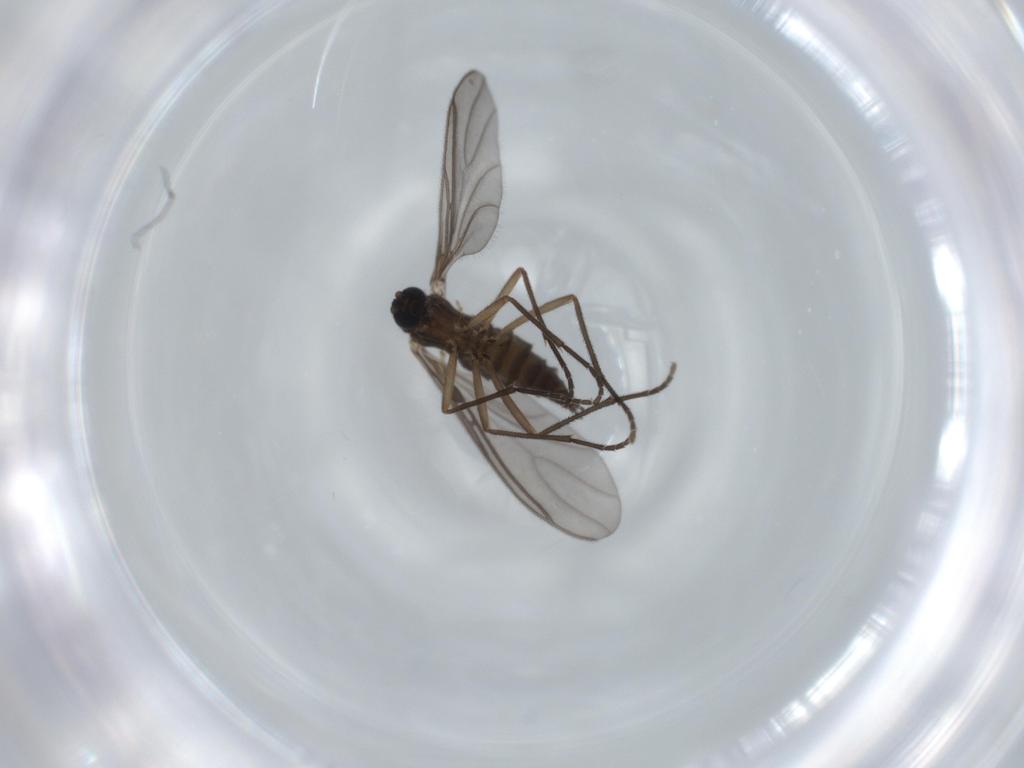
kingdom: Animalia
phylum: Arthropoda
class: Insecta
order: Diptera
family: Sciaridae
